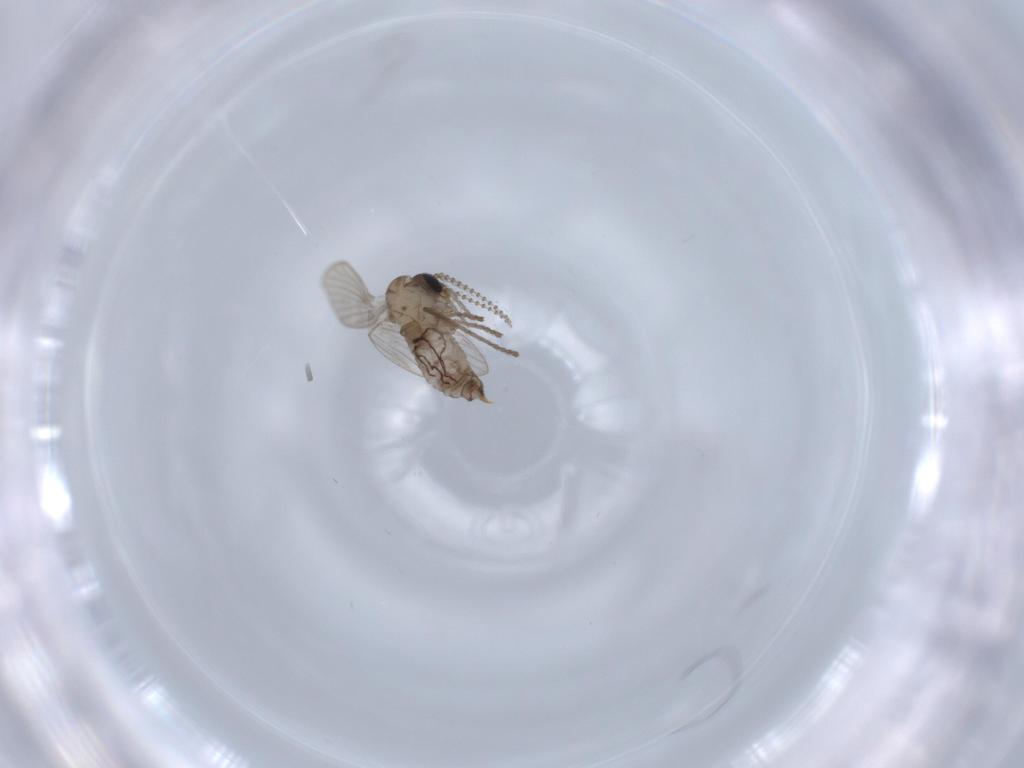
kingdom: Animalia
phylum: Arthropoda
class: Insecta
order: Diptera
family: Psychodidae
